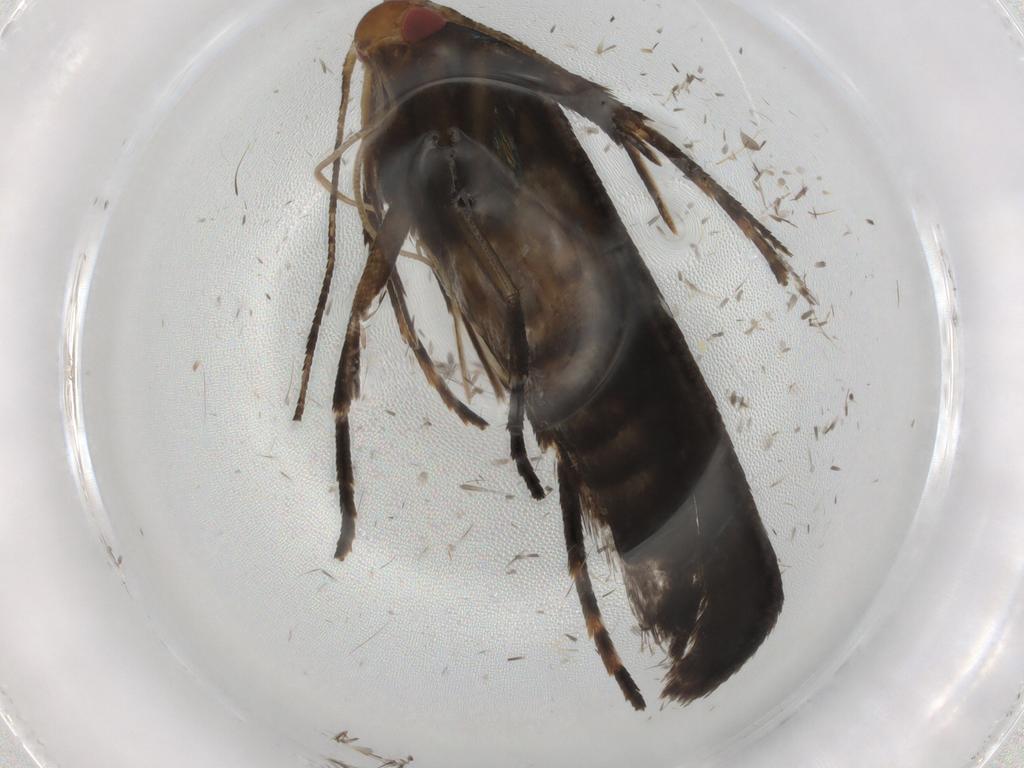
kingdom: Animalia
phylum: Arthropoda
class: Insecta
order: Lepidoptera
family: Gelechiidae
